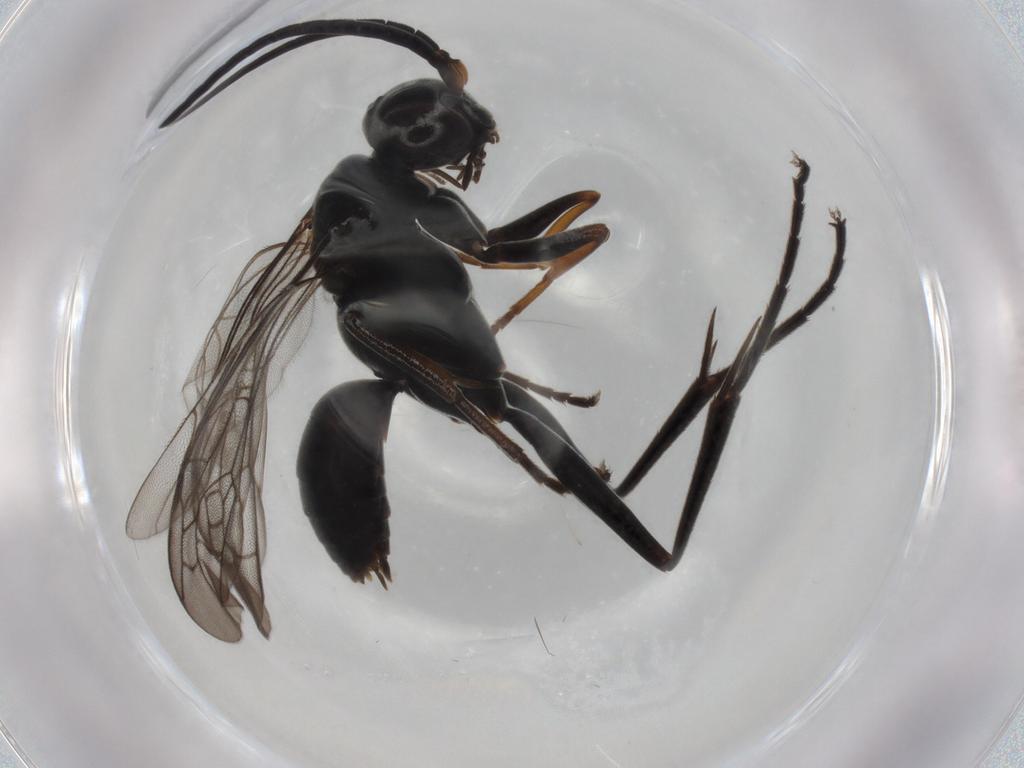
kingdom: Animalia
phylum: Arthropoda
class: Insecta
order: Hymenoptera
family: Pompilidae
